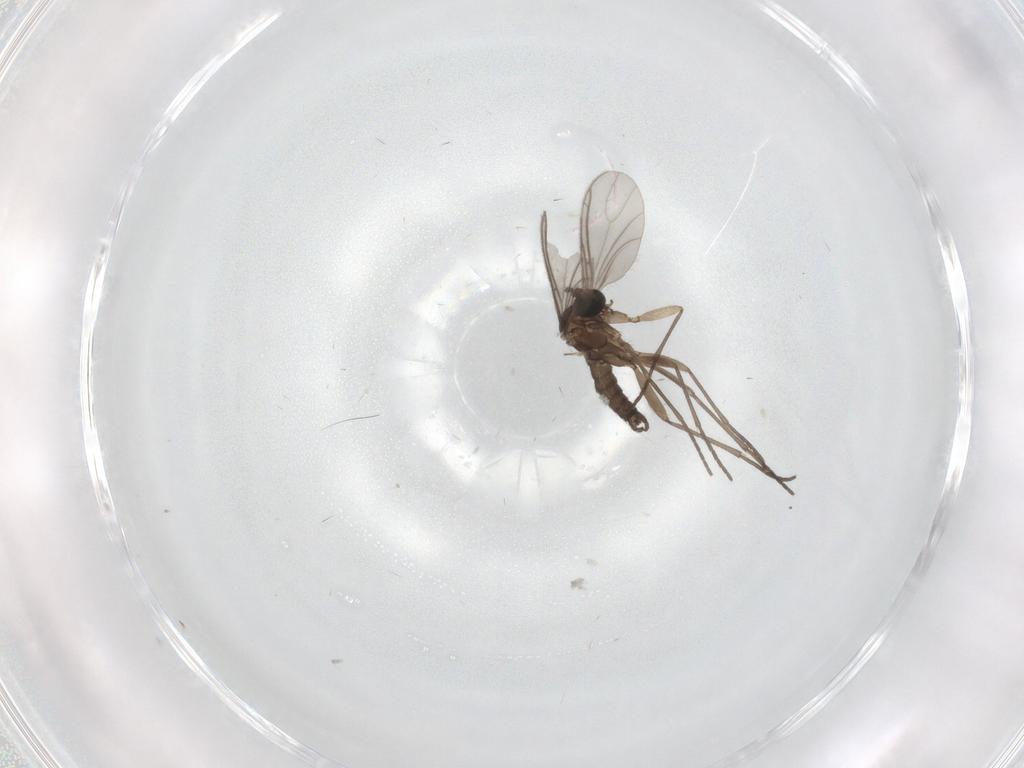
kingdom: Animalia
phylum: Arthropoda
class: Insecta
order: Diptera
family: Sciaridae
